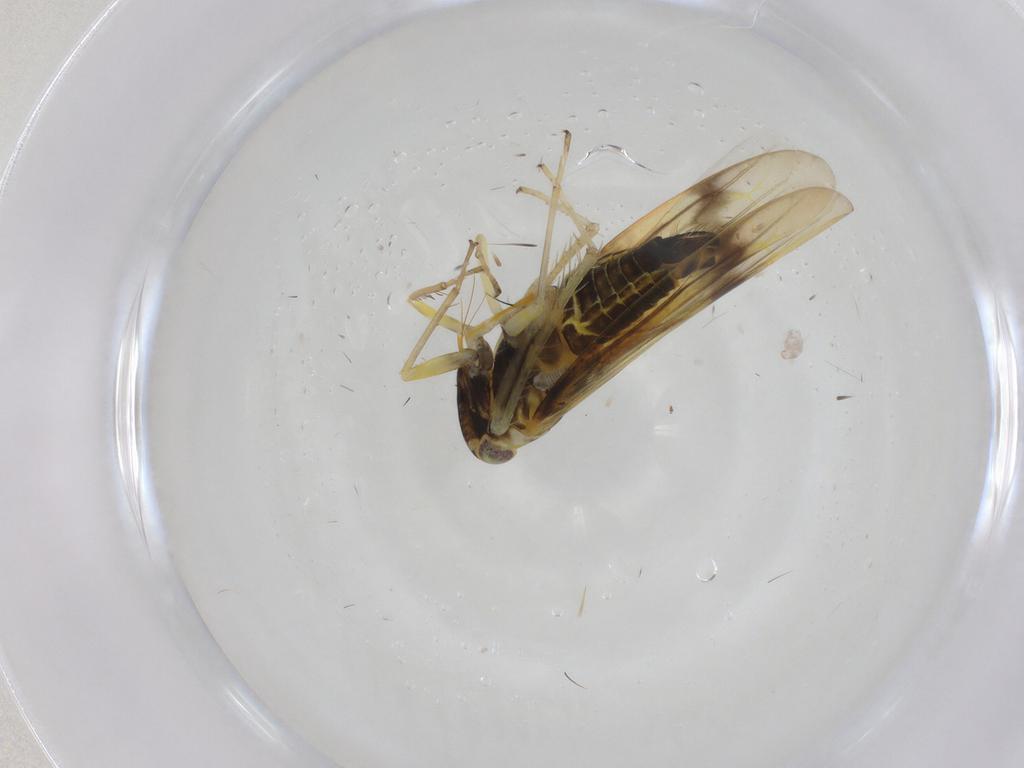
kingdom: Animalia
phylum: Arthropoda
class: Insecta
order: Hemiptera
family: Cicadellidae
